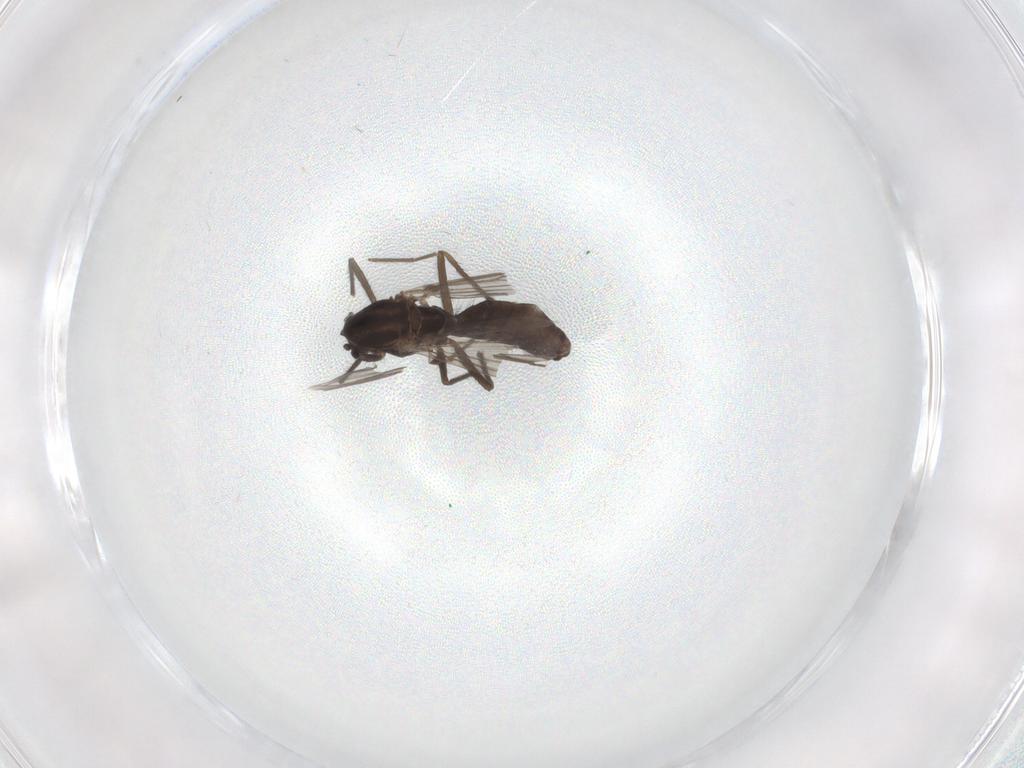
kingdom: Animalia
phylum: Arthropoda
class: Insecta
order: Diptera
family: Chironomidae
